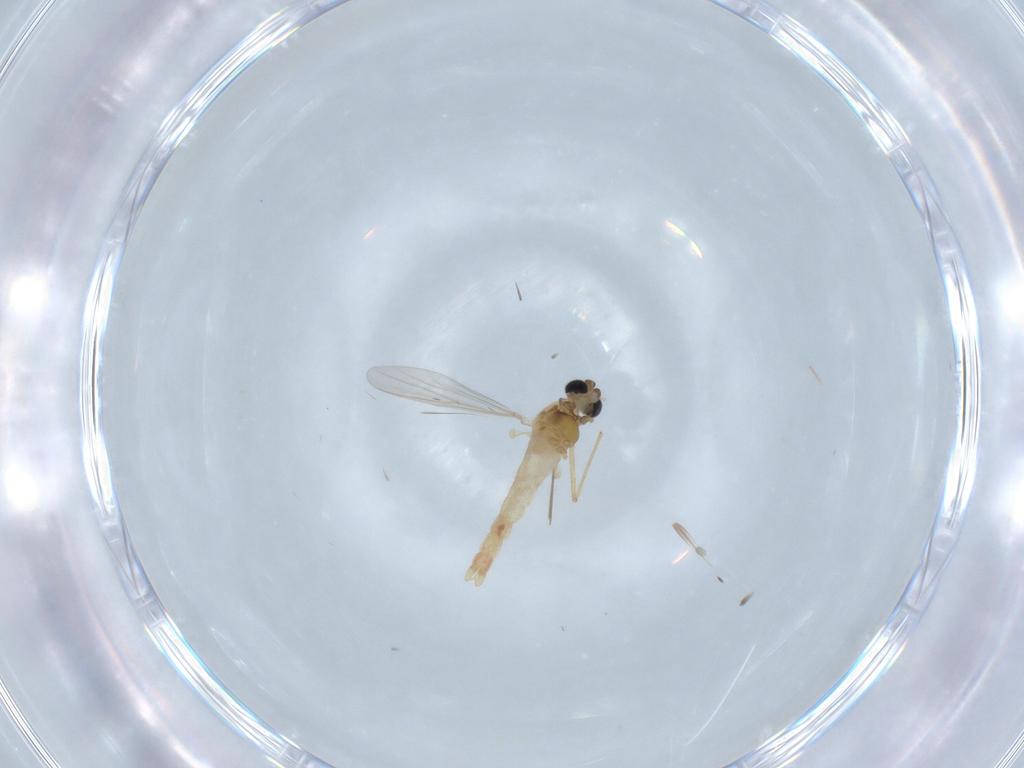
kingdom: Animalia
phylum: Arthropoda
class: Insecta
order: Diptera
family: Chironomidae
